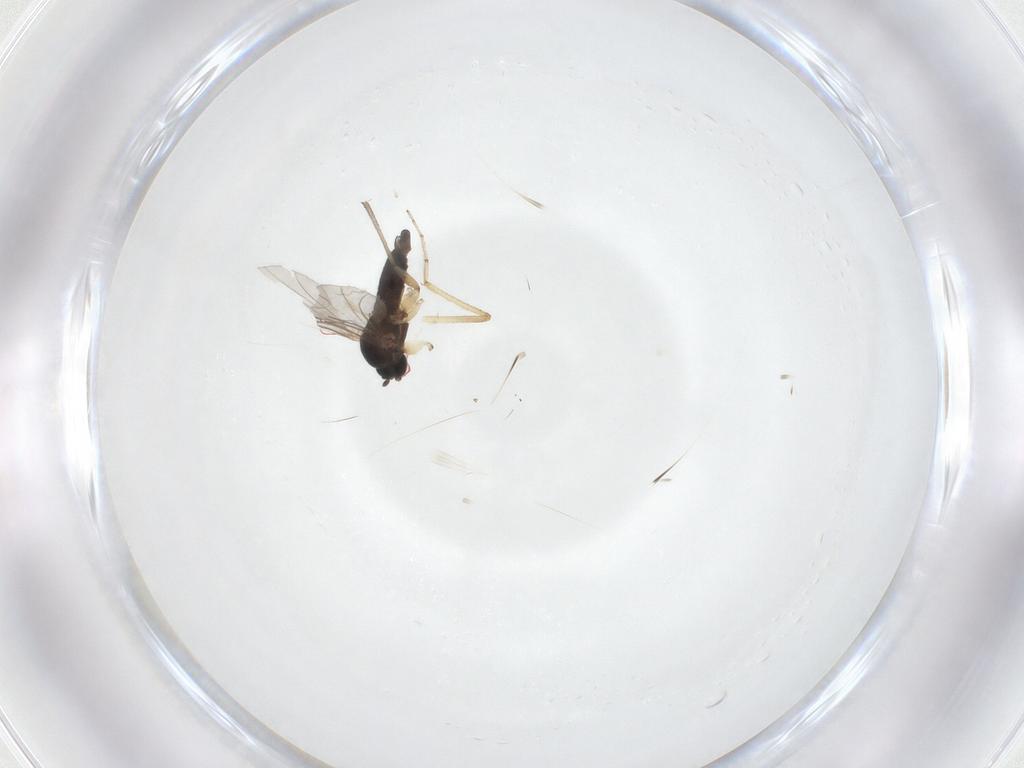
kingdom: Animalia
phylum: Arthropoda
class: Insecta
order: Diptera
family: Ceratopogonidae
